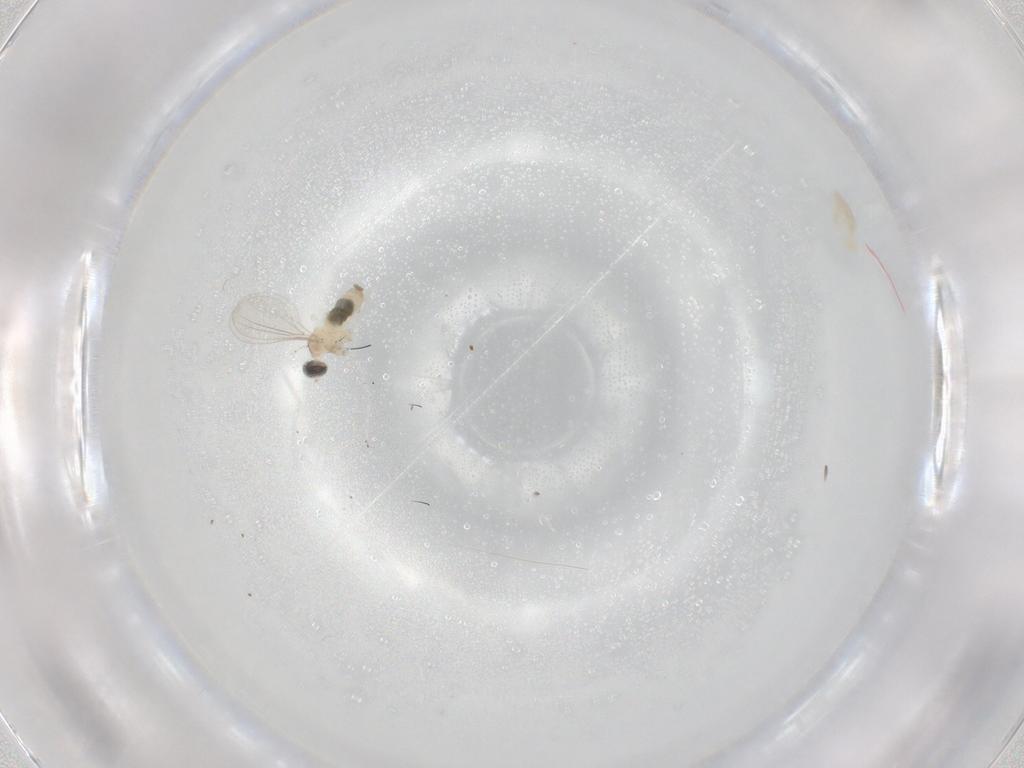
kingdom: Animalia
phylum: Arthropoda
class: Insecta
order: Diptera
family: Cecidomyiidae
